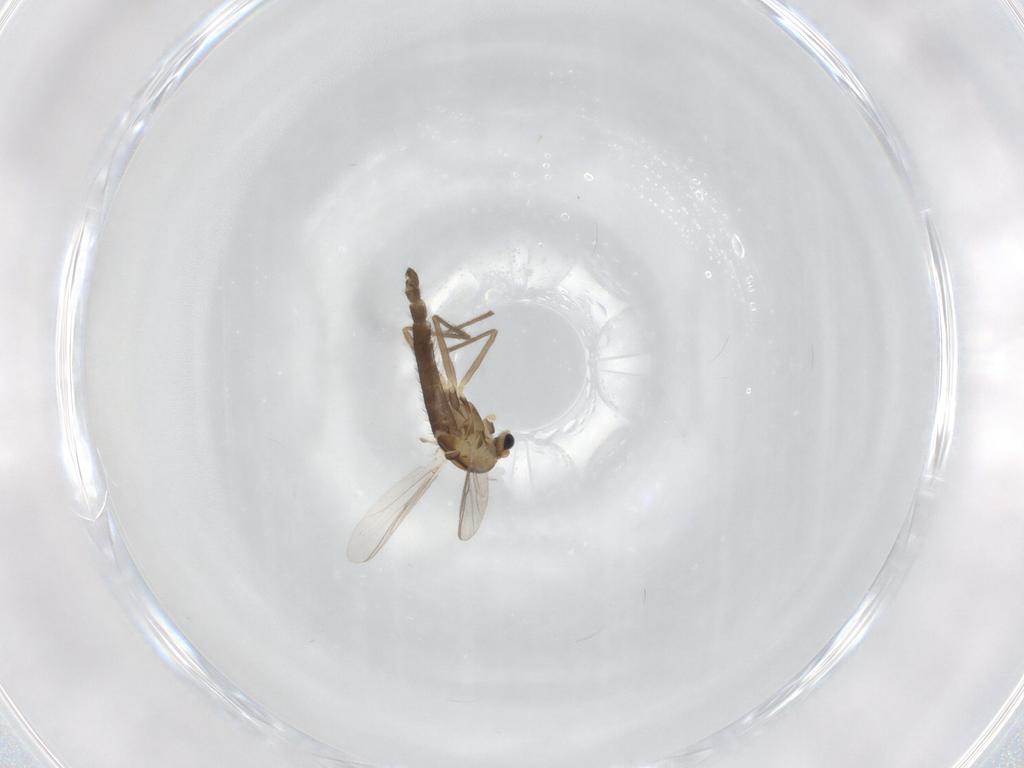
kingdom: Animalia
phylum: Arthropoda
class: Insecta
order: Diptera
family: Chironomidae
